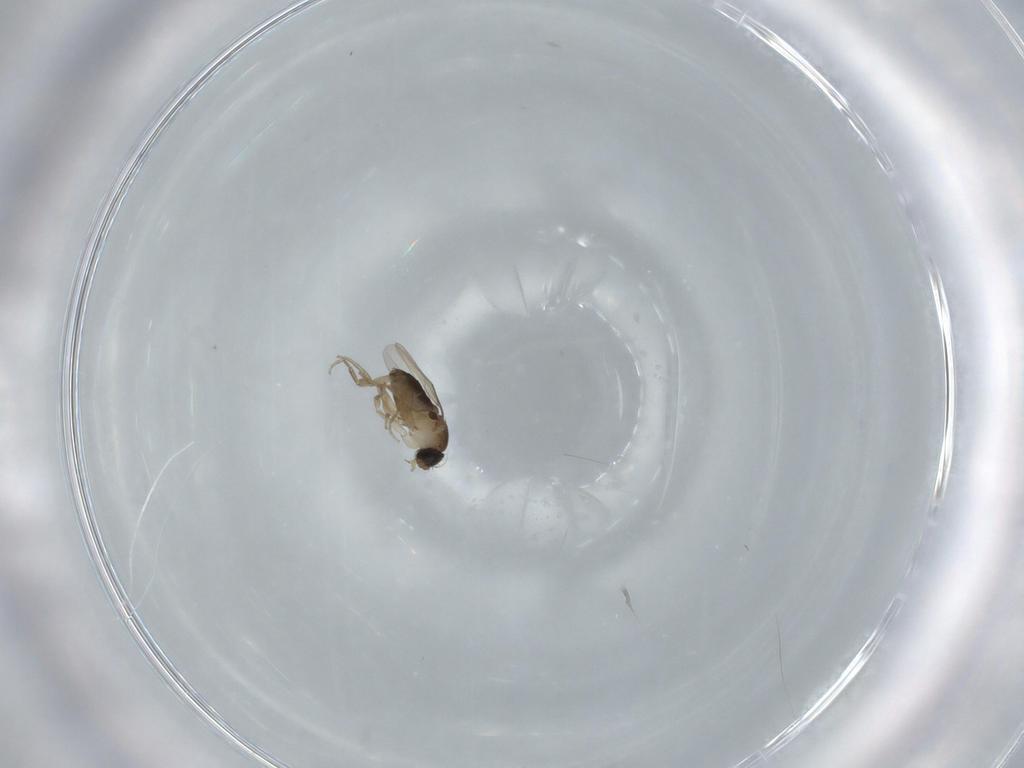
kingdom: Animalia
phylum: Arthropoda
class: Insecta
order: Diptera
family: Phoridae
